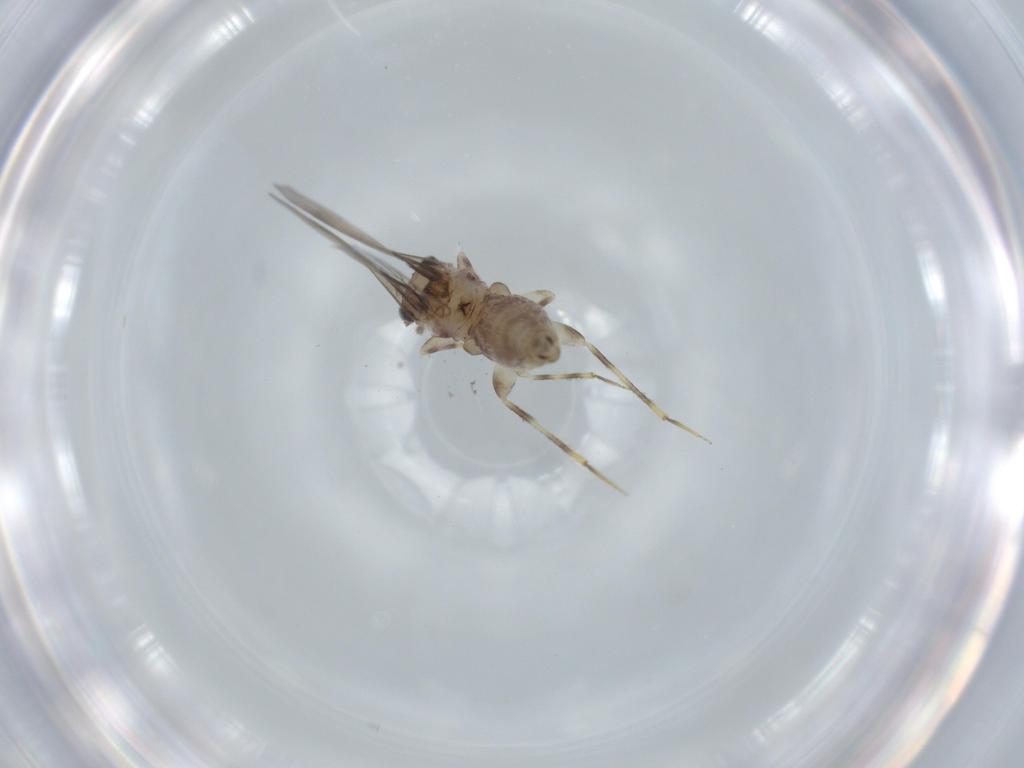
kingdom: Animalia
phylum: Arthropoda
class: Insecta
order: Psocodea
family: Lepidopsocidae
